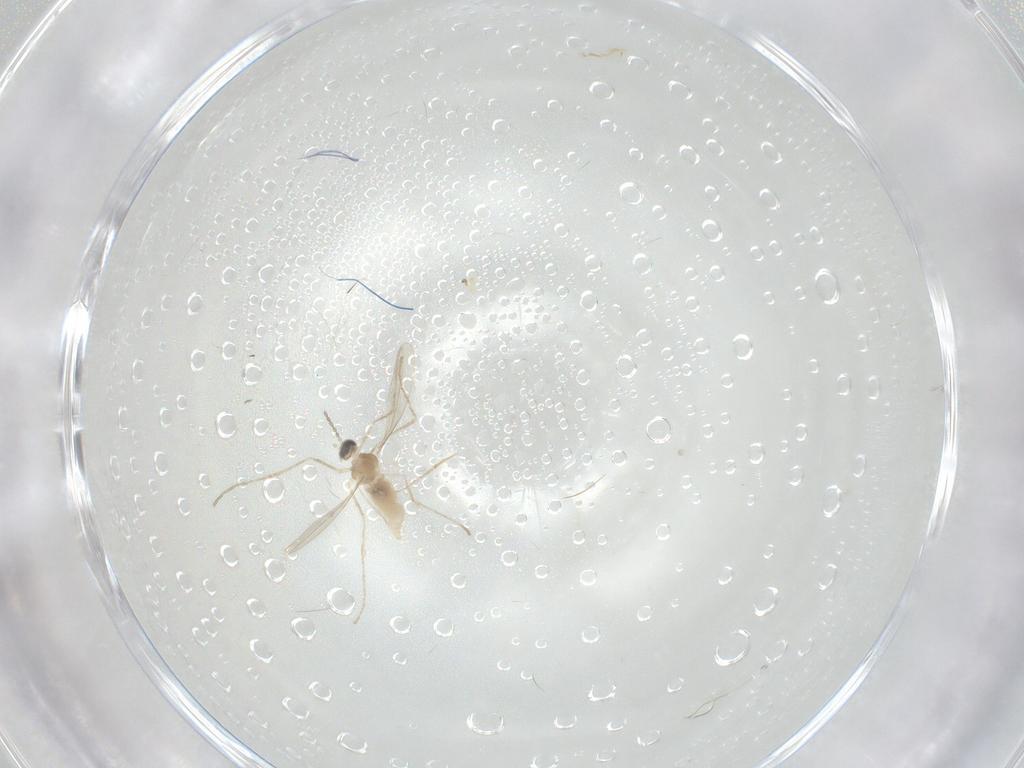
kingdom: Animalia
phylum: Arthropoda
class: Insecta
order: Diptera
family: Cecidomyiidae
